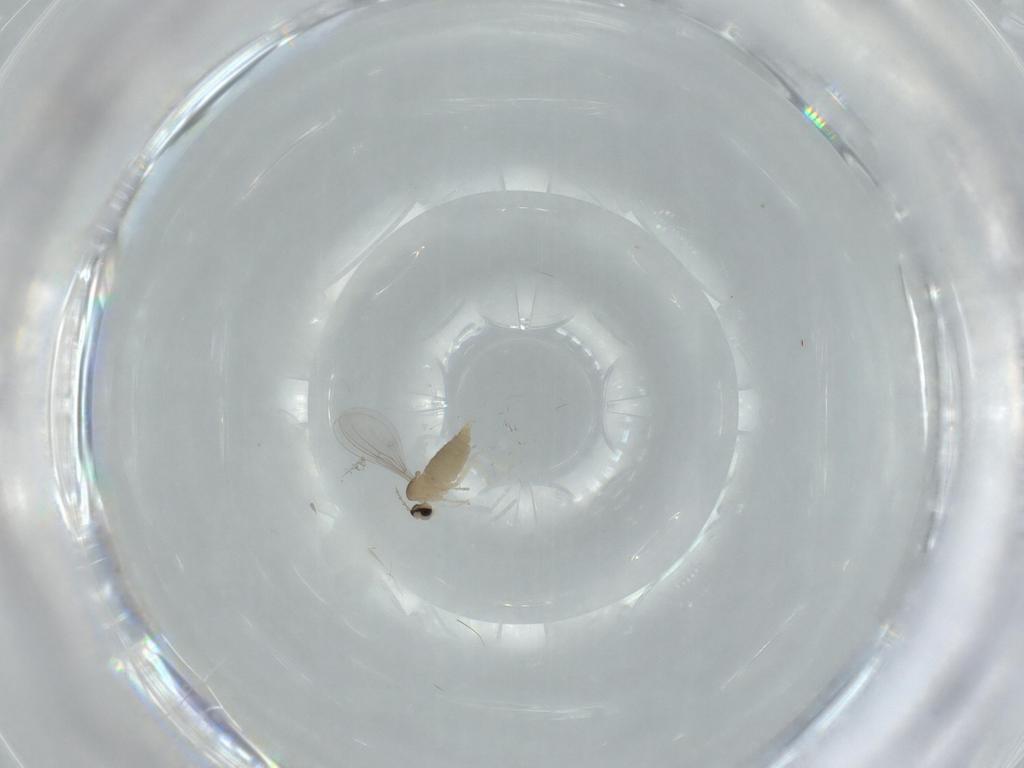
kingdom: Animalia
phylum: Arthropoda
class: Insecta
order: Diptera
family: Cecidomyiidae
